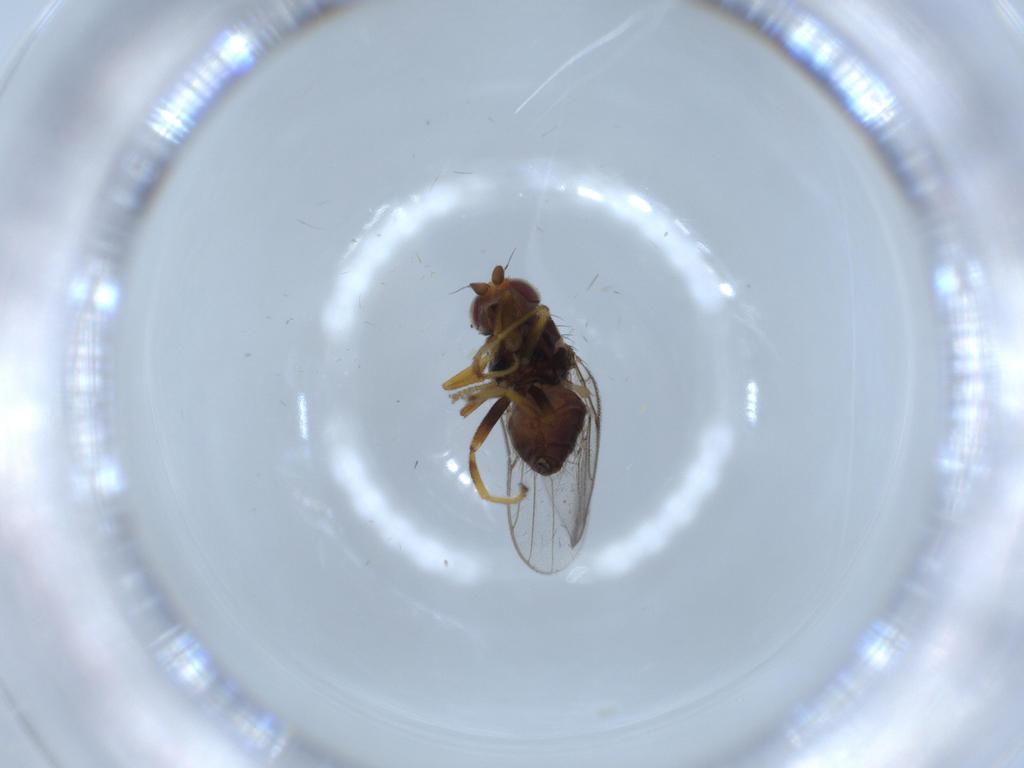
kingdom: Animalia
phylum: Arthropoda
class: Insecta
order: Diptera
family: Chloropidae
